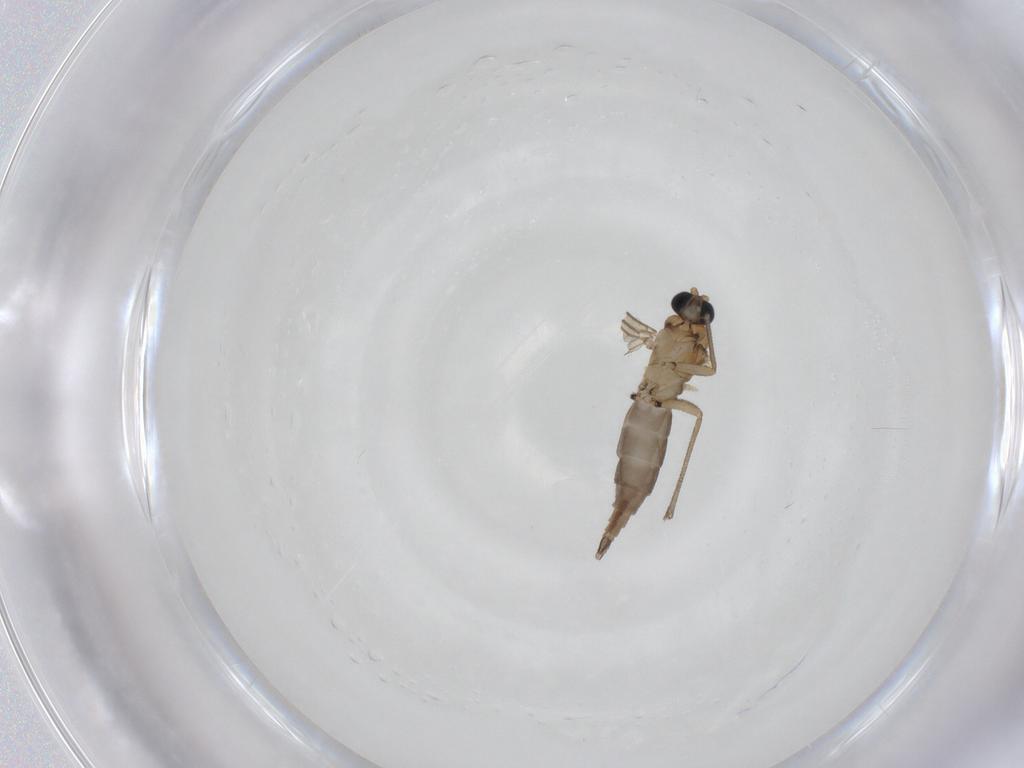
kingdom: Animalia
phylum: Arthropoda
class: Insecta
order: Diptera
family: Sciaridae
